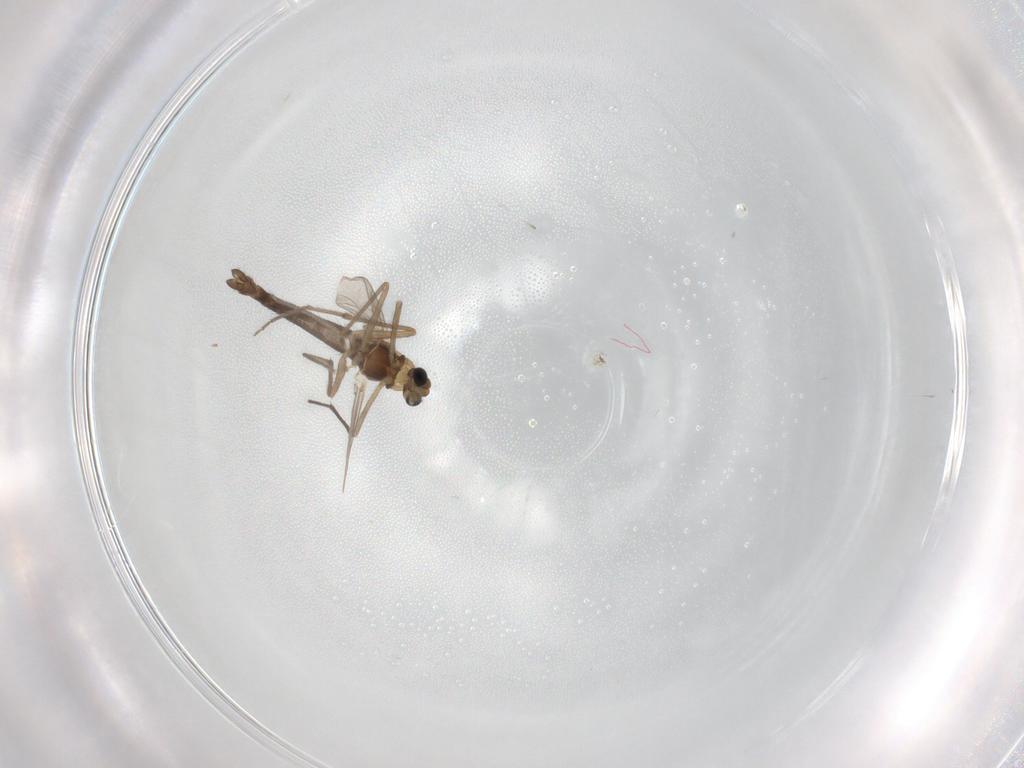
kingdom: Animalia
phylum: Arthropoda
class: Insecta
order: Diptera
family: Chironomidae
